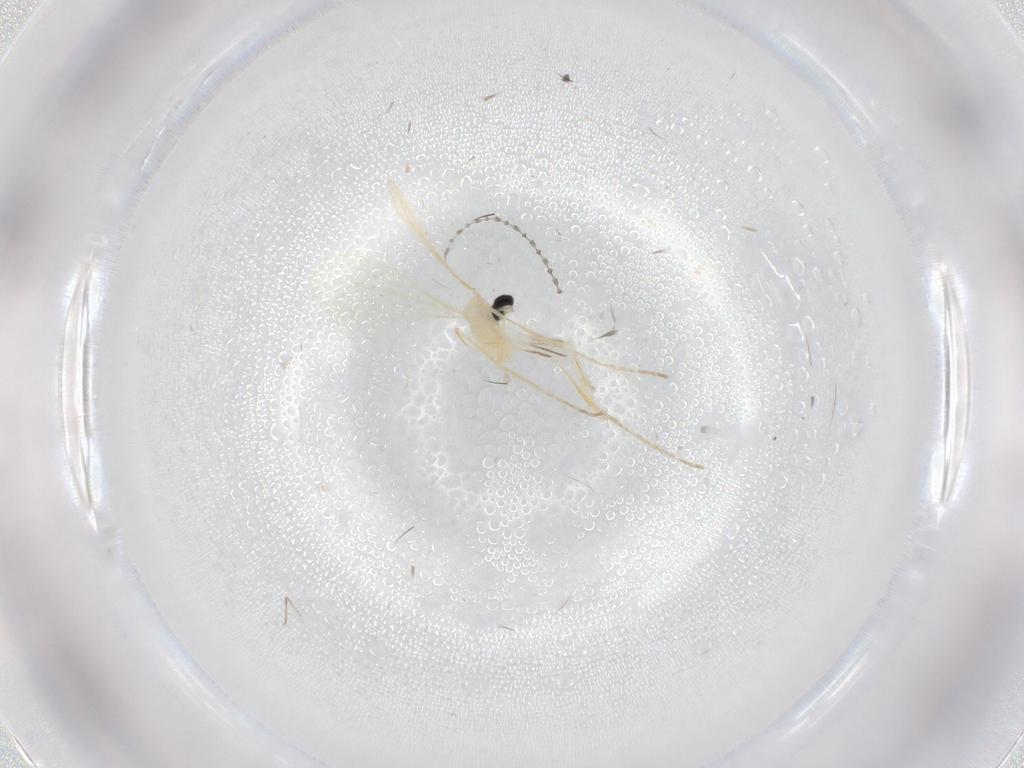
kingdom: Animalia
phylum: Arthropoda
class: Insecta
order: Diptera
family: Cecidomyiidae
